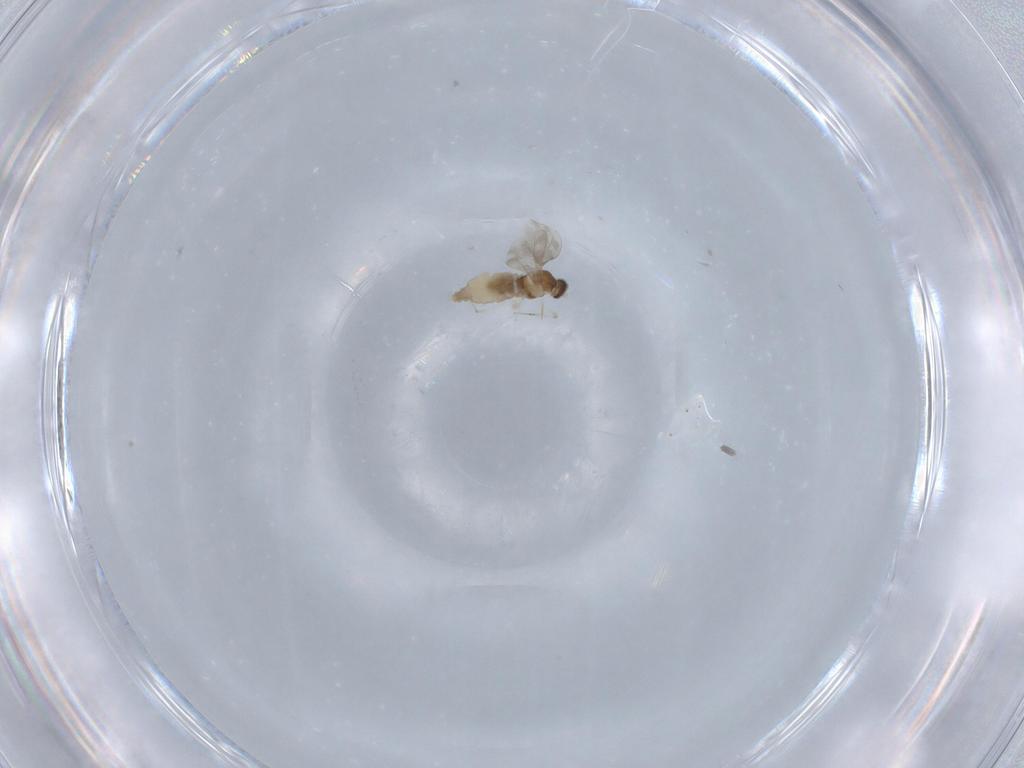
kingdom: Animalia
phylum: Arthropoda
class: Insecta
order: Diptera
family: Cecidomyiidae
